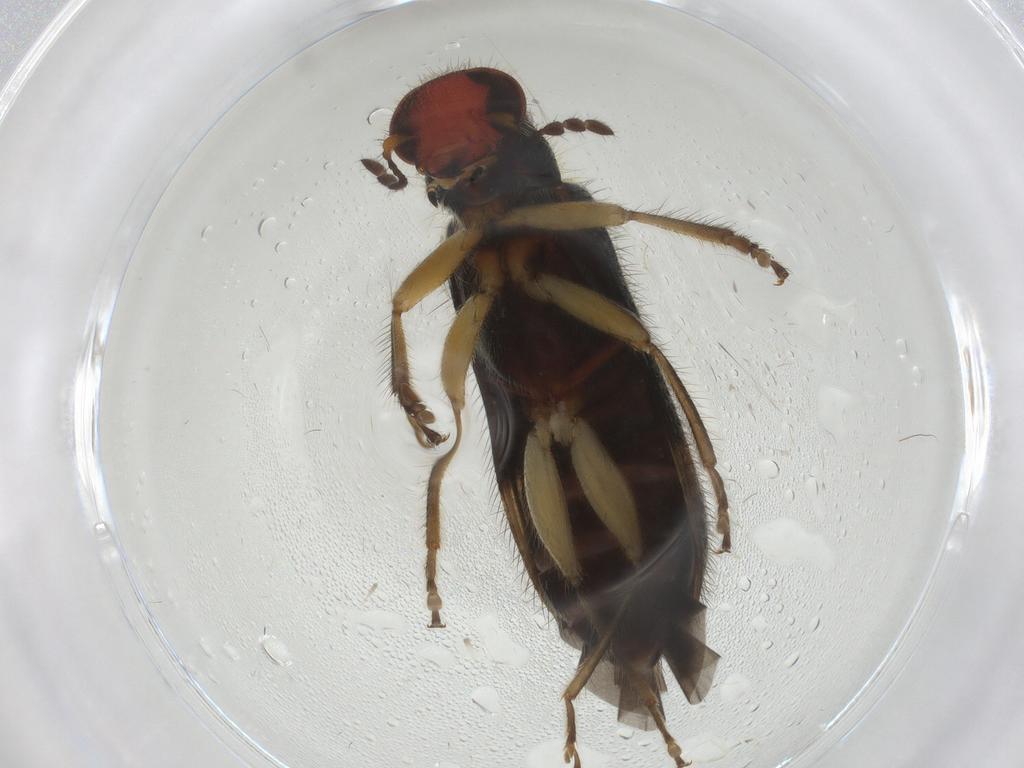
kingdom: Animalia
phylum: Arthropoda
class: Insecta
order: Coleoptera
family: Cleridae
